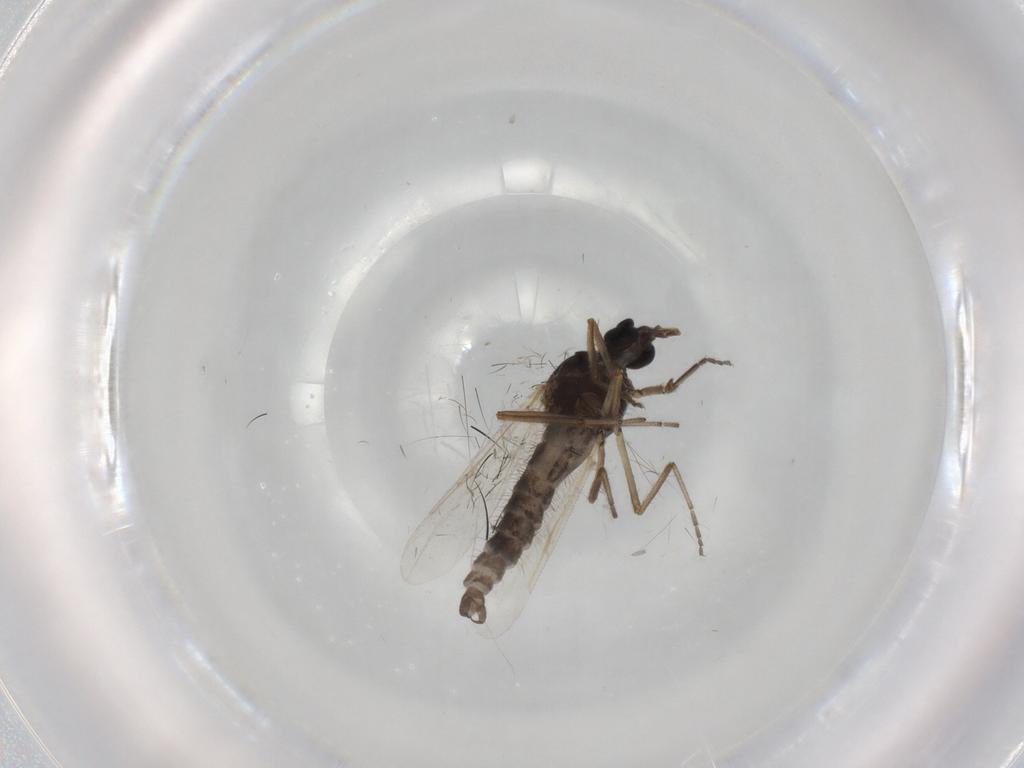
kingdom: Animalia
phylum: Arthropoda
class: Insecta
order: Diptera
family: Ceratopogonidae
